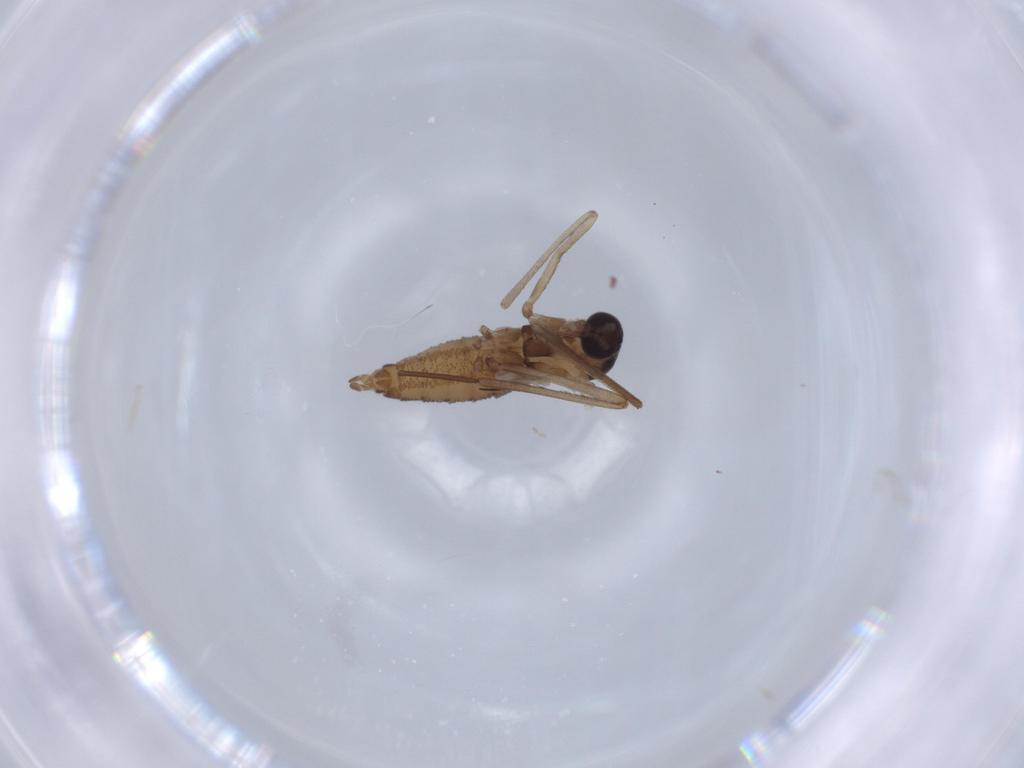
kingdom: Animalia
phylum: Arthropoda
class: Insecta
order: Diptera
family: Cecidomyiidae
